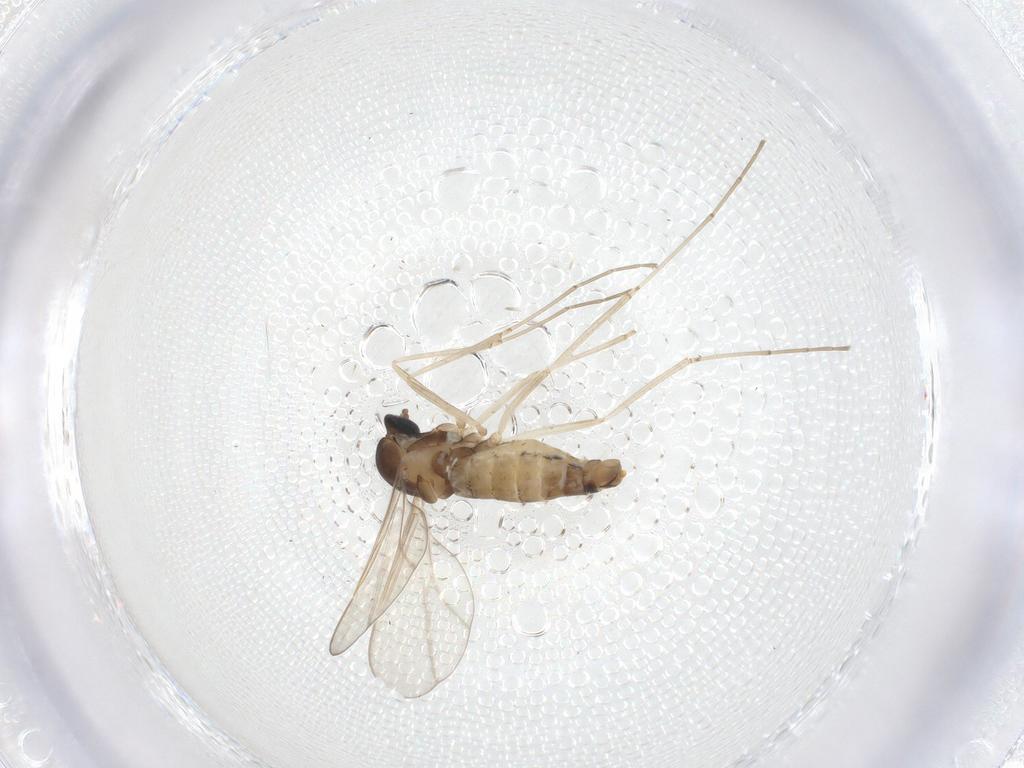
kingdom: Animalia
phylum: Arthropoda
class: Insecta
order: Diptera
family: Cecidomyiidae
